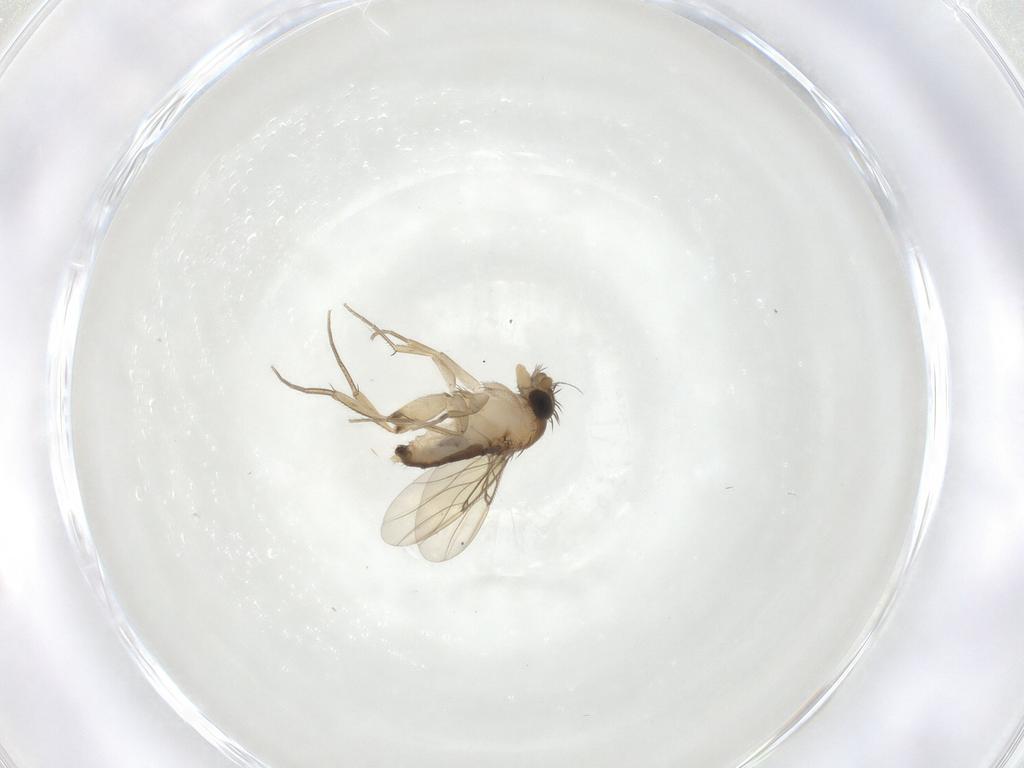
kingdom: Animalia
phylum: Arthropoda
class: Insecta
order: Diptera
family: Phoridae
